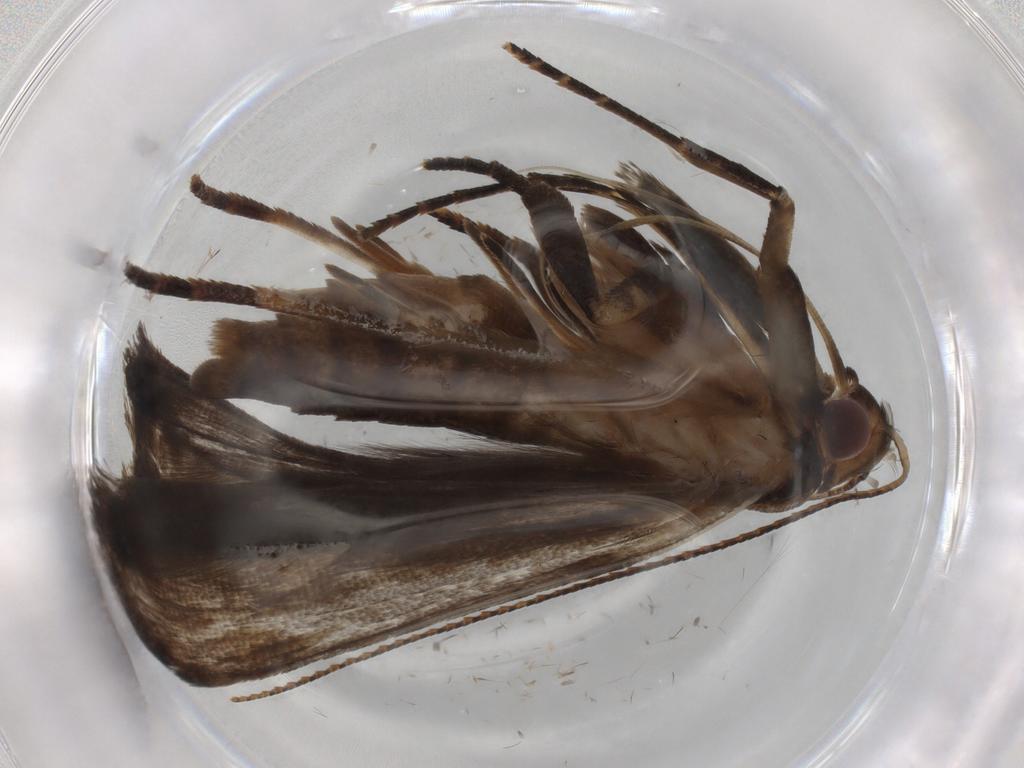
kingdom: Animalia
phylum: Arthropoda
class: Insecta
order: Lepidoptera
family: Gelechiidae
